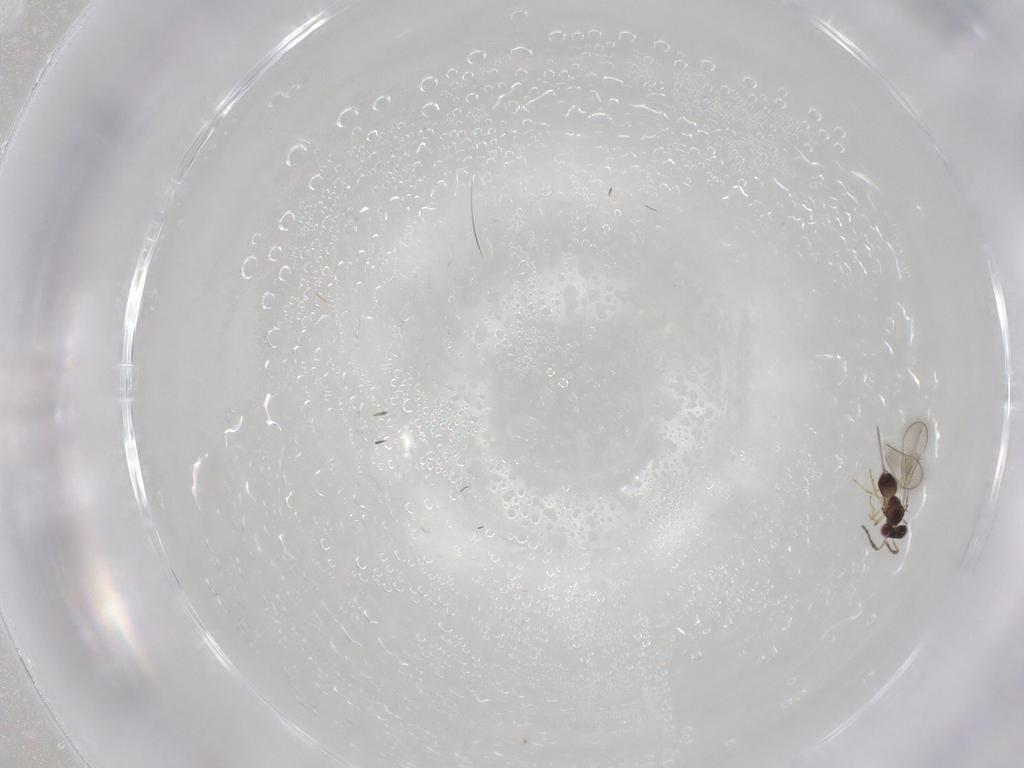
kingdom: Animalia
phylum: Arthropoda
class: Insecta
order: Hymenoptera
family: Eulophidae
